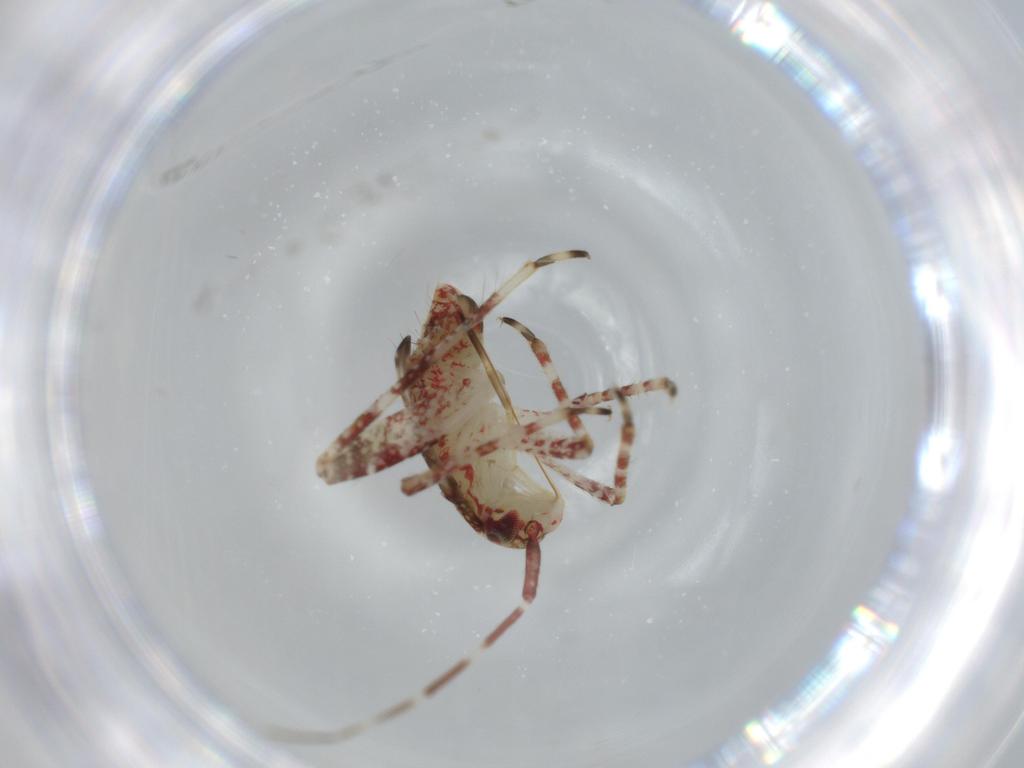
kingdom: Animalia
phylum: Arthropoda
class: Insecta
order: Hemiptera
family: Miridae
